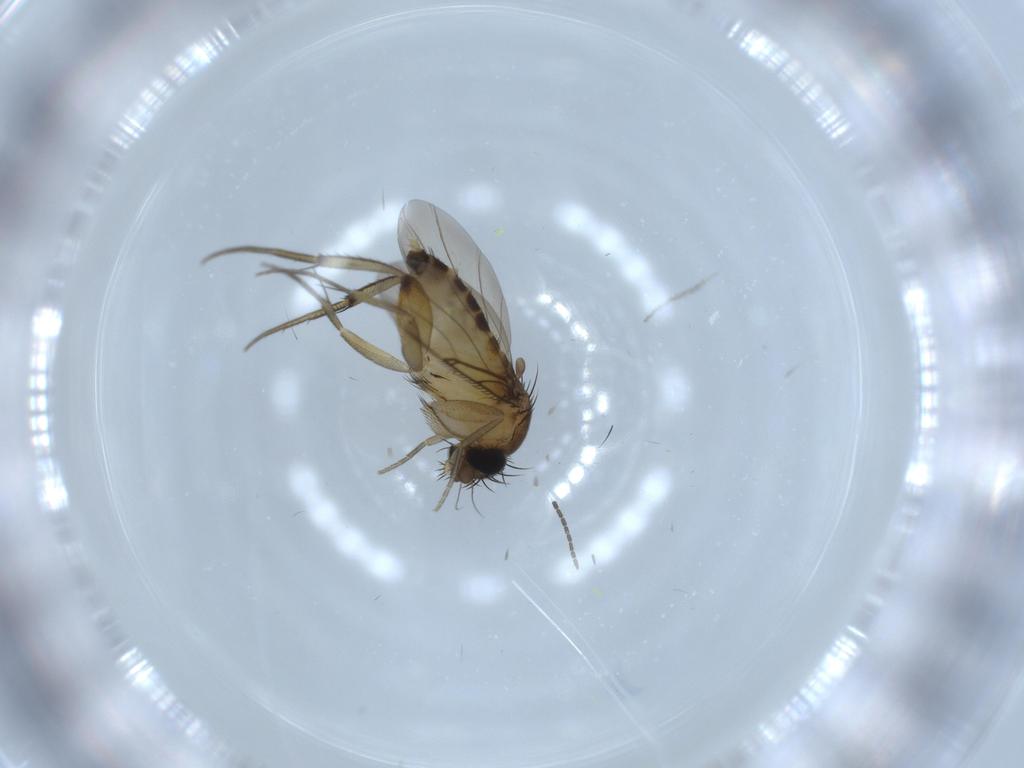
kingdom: Animalia
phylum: Arthropoda
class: Insecta
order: Diptera
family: Phoridae
